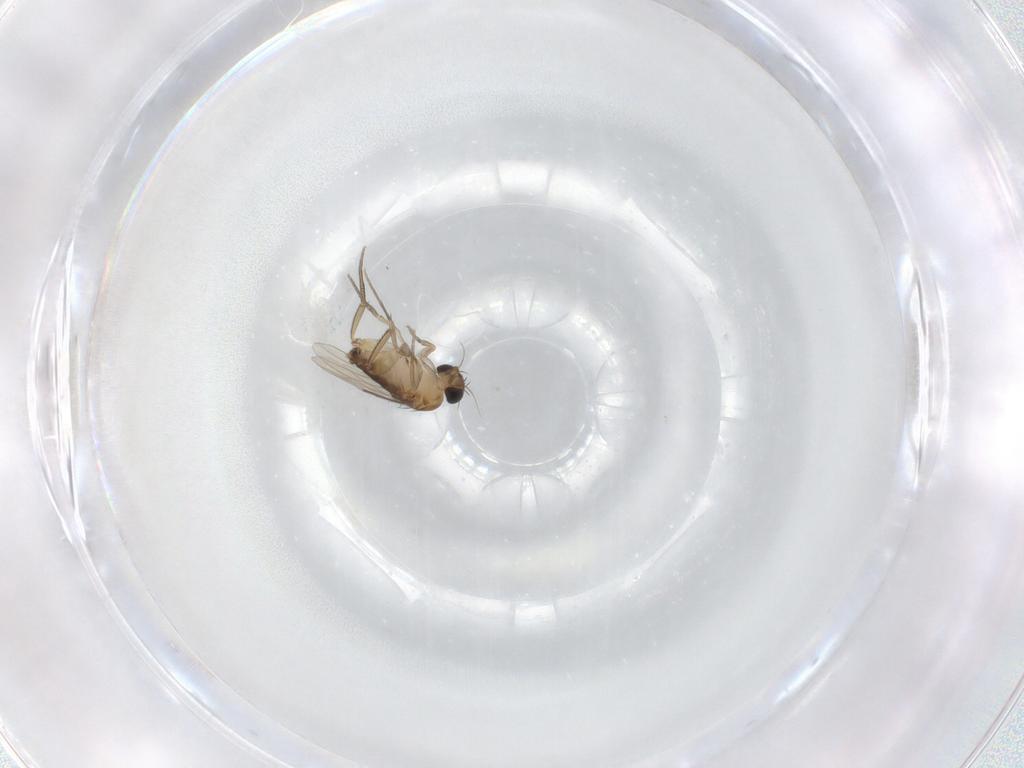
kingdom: Animalia
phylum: Arthropoda
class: Insecta
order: Diptera
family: Phoridae
